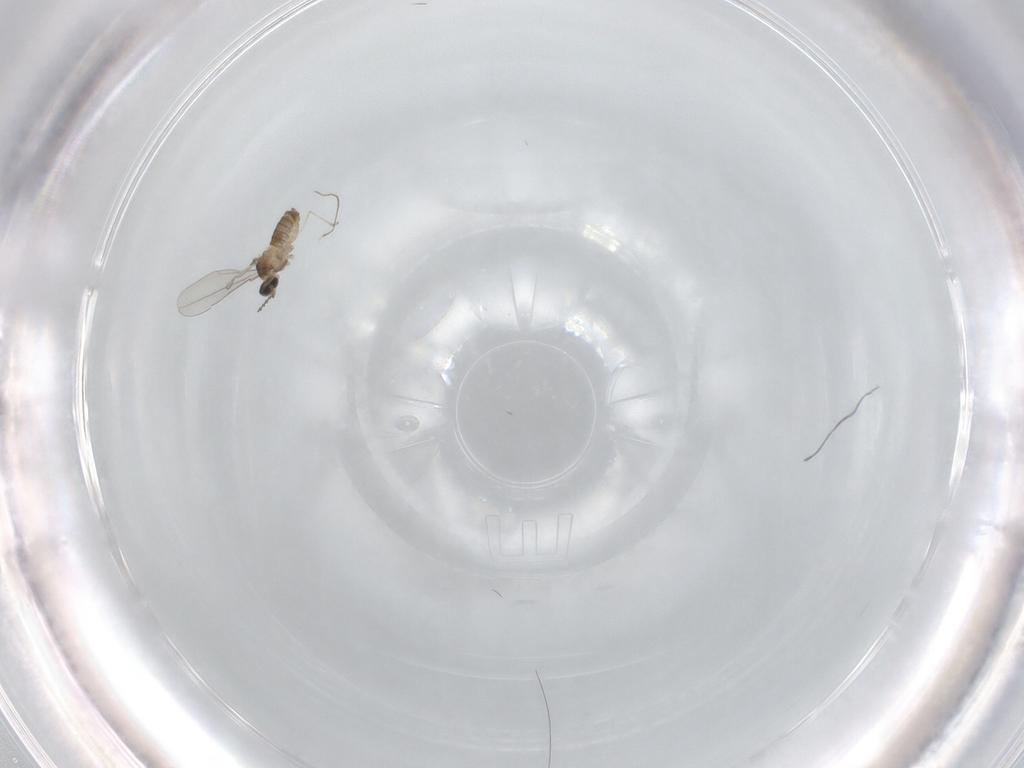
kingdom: Animalia
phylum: Arthropoda
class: Insecta
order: Diptera
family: Cecidomyiidae
